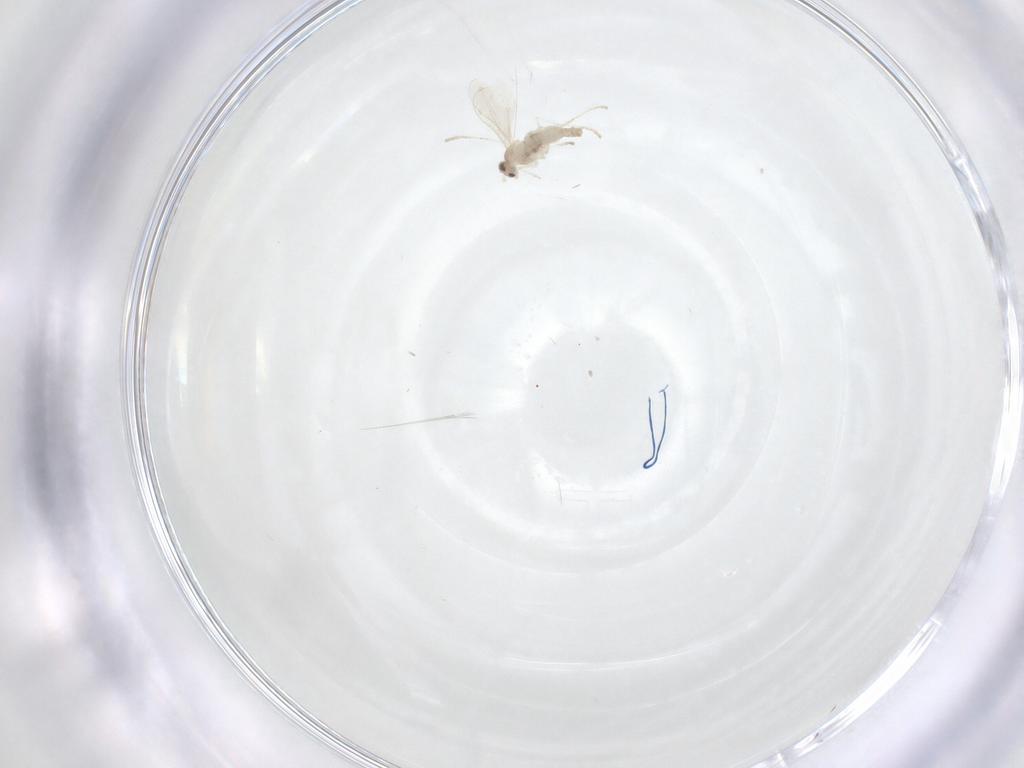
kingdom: Animalia
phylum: Arthropoda
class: Insecta
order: Diptera
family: Cecidomyiidae
